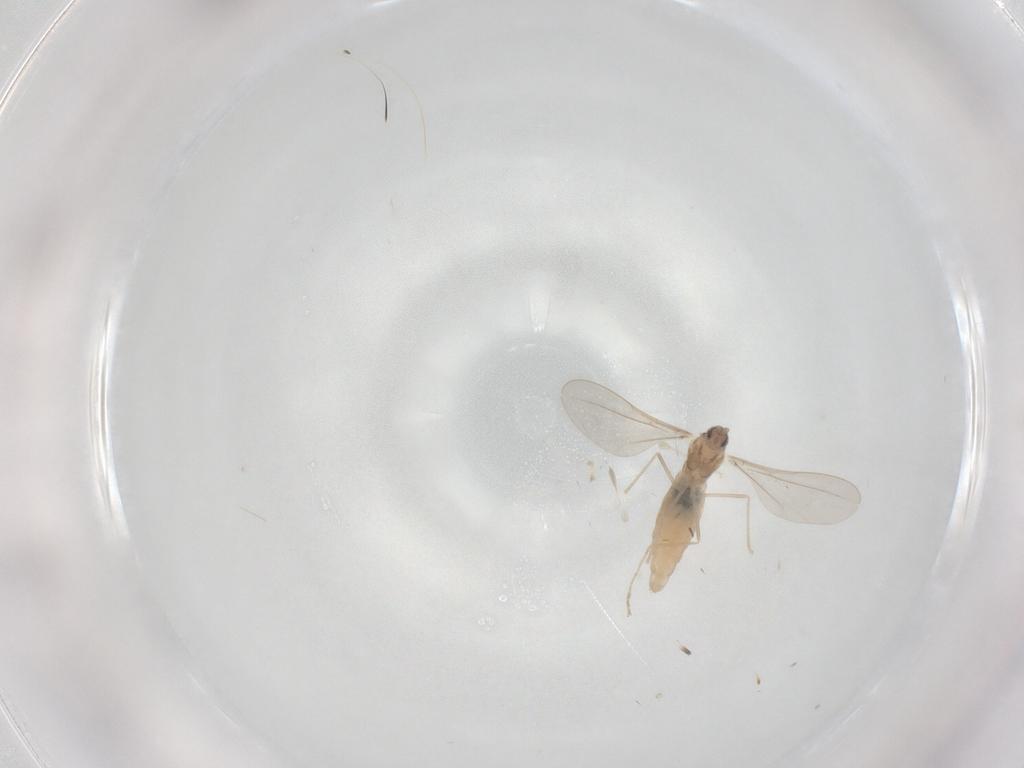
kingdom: Animalia
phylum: Arthropoda
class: Insecta
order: Diptera
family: Cecidomyiidae
